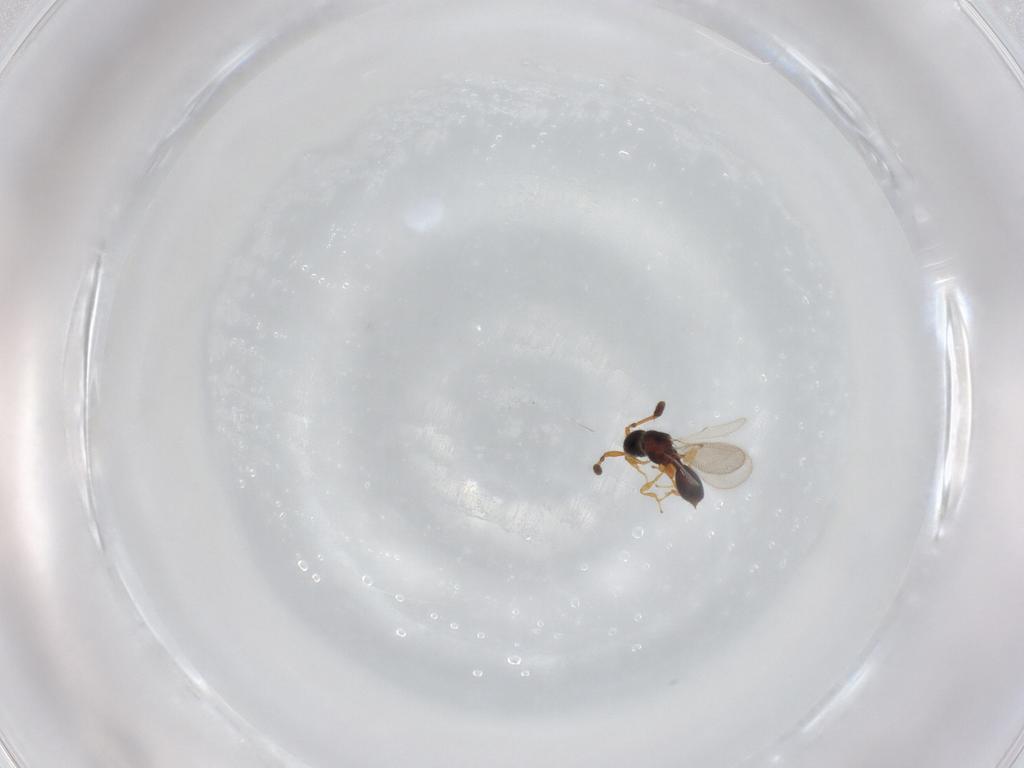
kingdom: Animalia
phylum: Arthropoda
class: Insecta
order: Hymenoptera
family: Diapriidae
